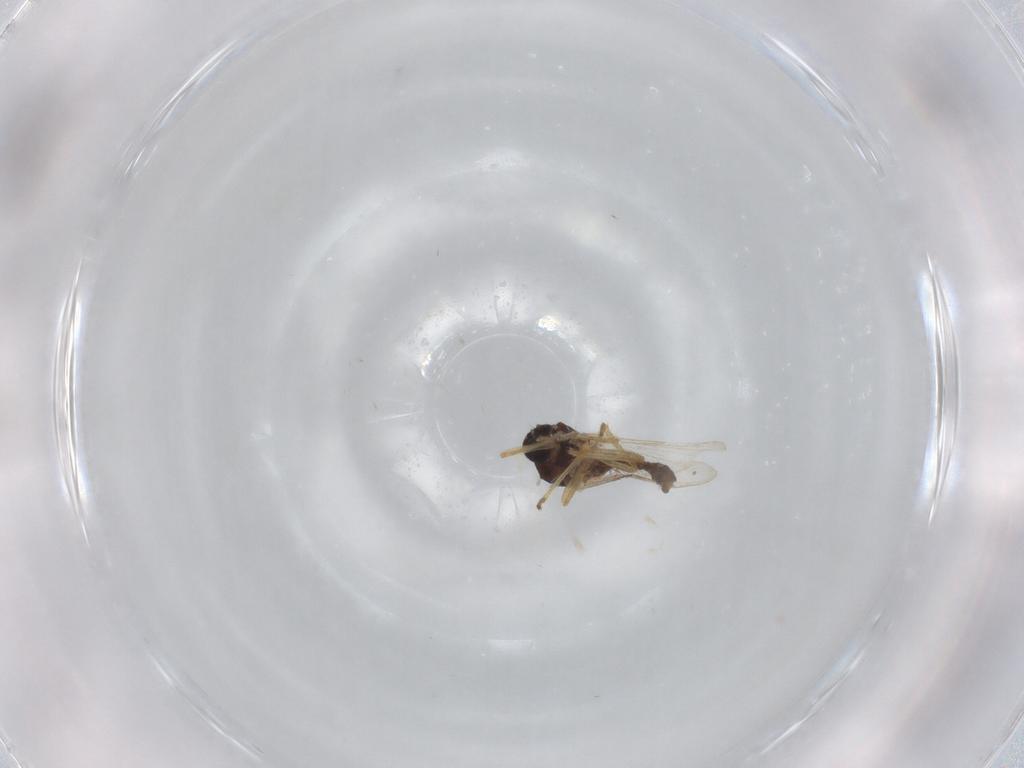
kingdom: Animalia
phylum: Arthropoda
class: Insecta
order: Diptera
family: Ceratopogonidae
